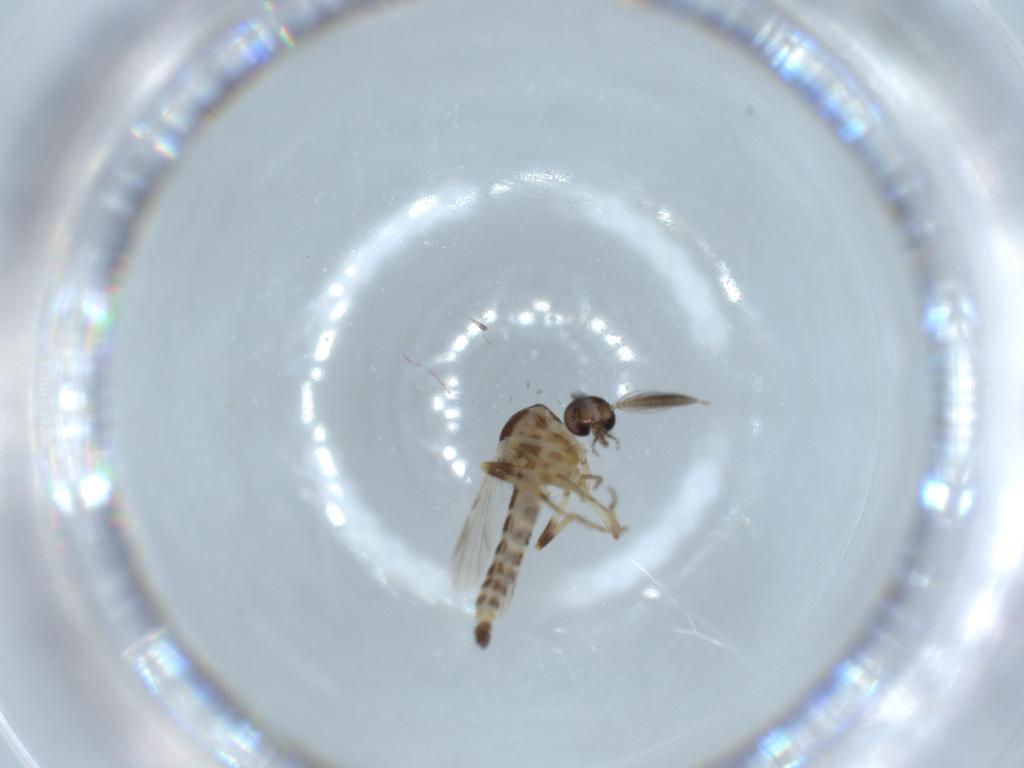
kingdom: Animalia
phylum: Arthropoda
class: Insecta
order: Diptera
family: Ceratopogonidae
